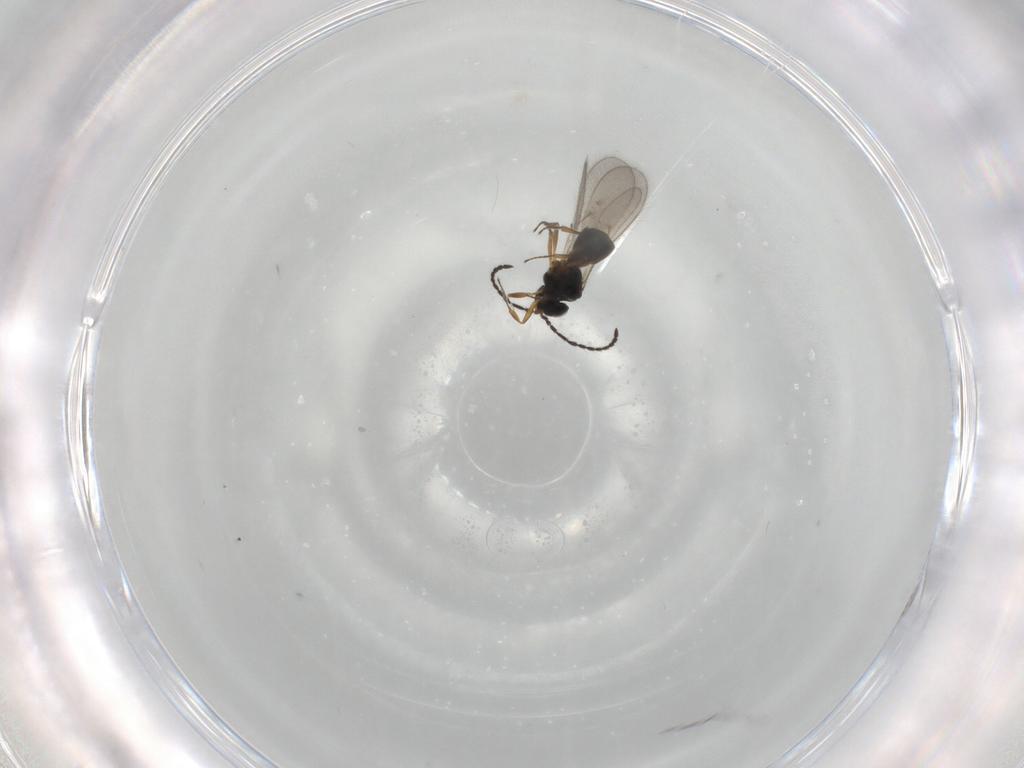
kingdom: Animalia
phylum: Arthropoda
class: Insecta
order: Hymenoptera
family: Scelionidae
